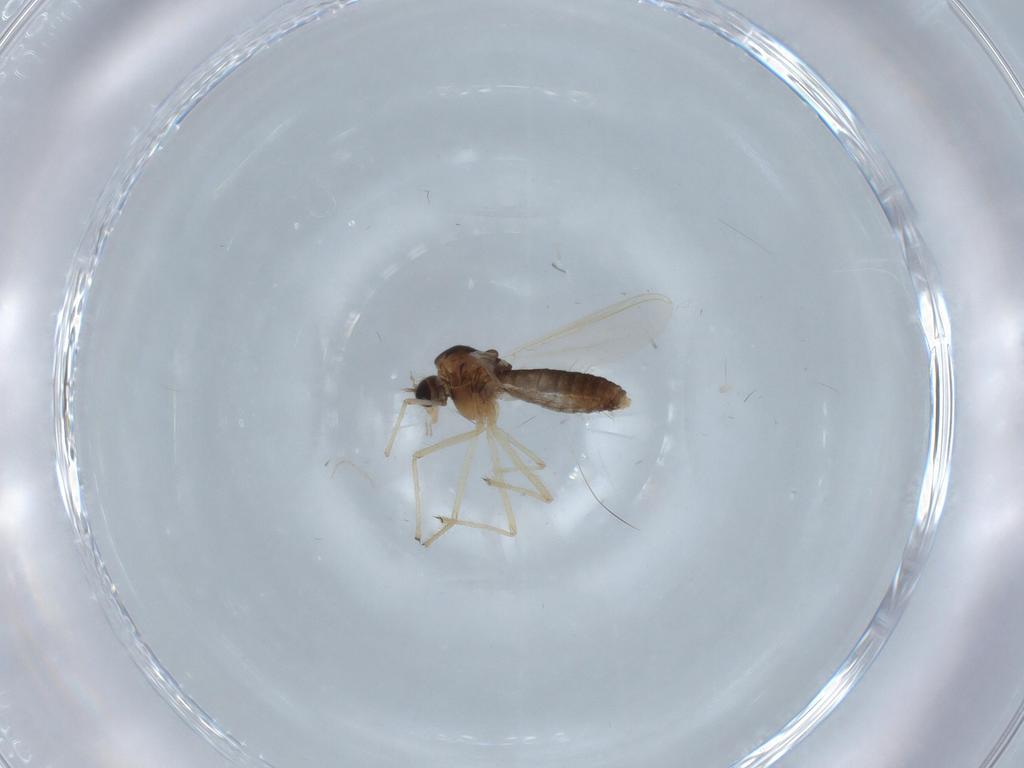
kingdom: Animalia
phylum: Arthropoda
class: Insecta
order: Diptera
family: Chironomidae
